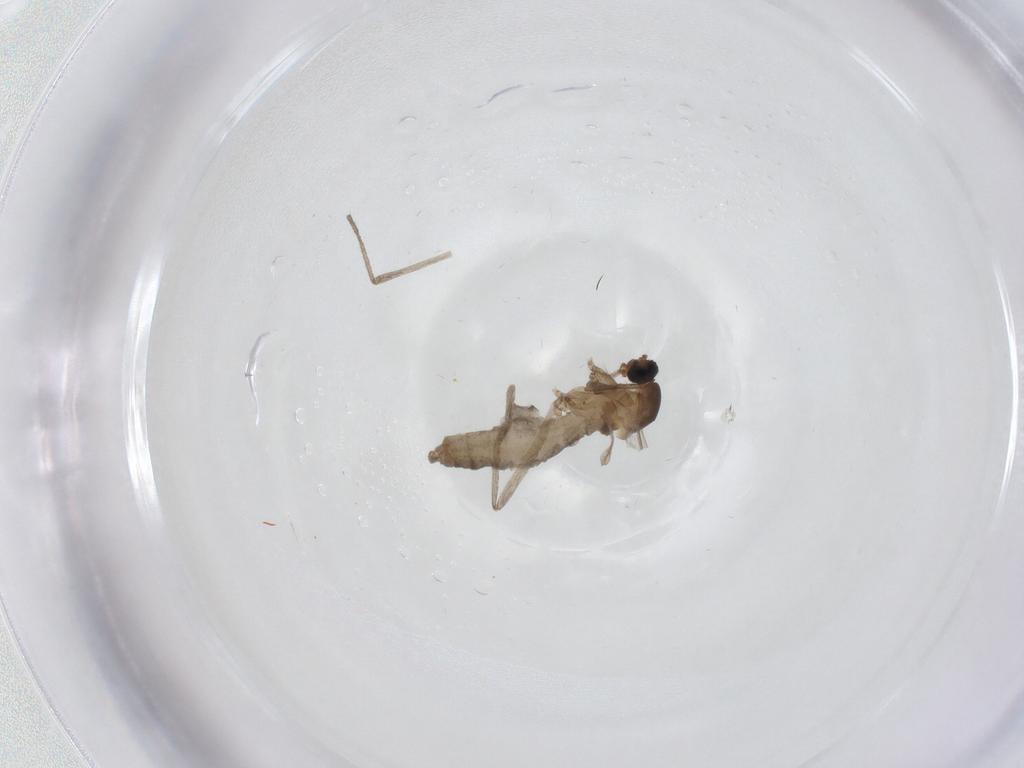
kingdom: Animalia
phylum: Arthropoda
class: Insecta
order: Diptera
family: Cecidomyiidae
